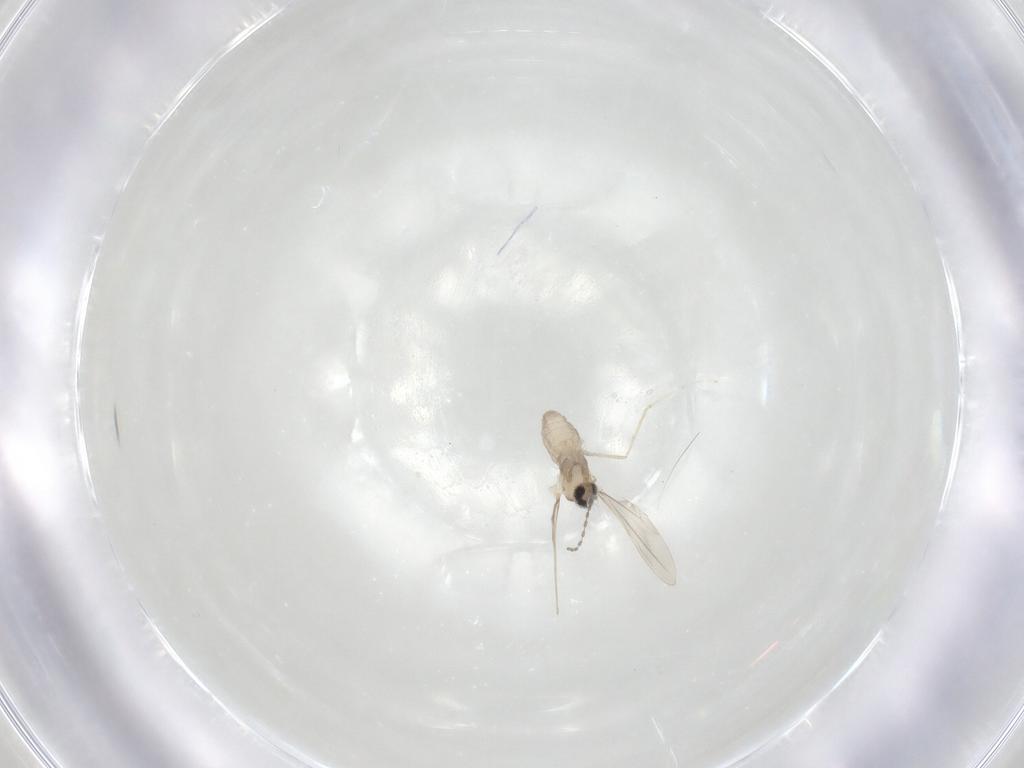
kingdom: Animalia
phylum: Arthropoda
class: Insecta
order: Diptera
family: Cecidomyiidae
